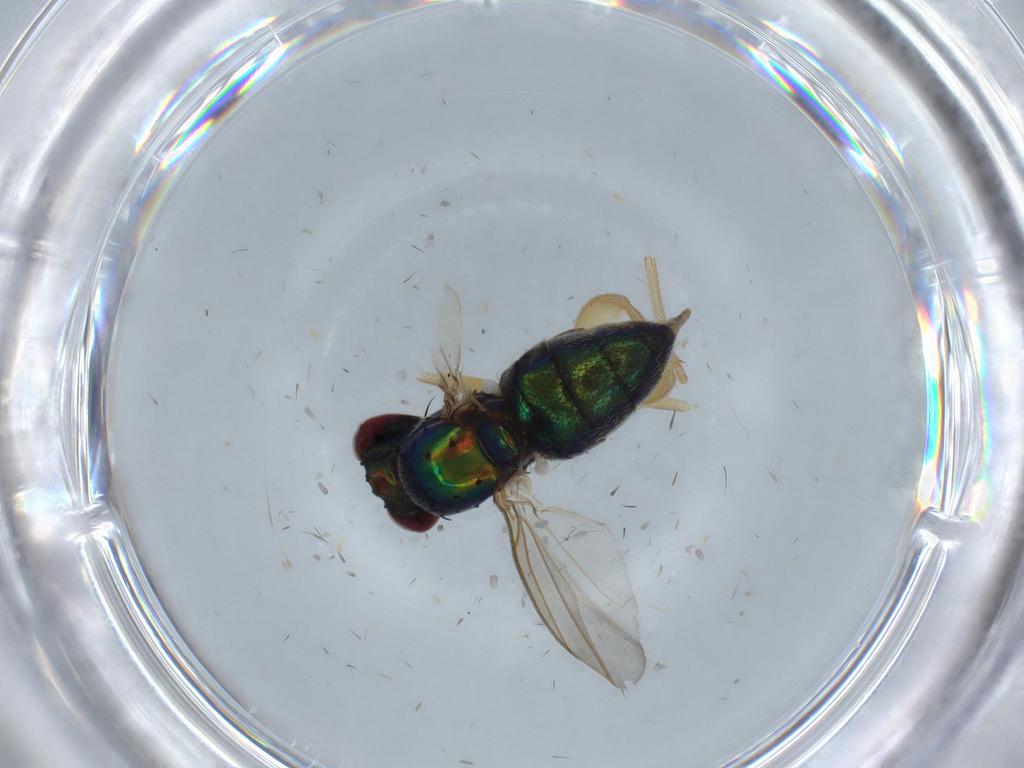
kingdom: Animalia
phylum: Arthropoda
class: Insecta
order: Diptera
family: Dolichopodidae
